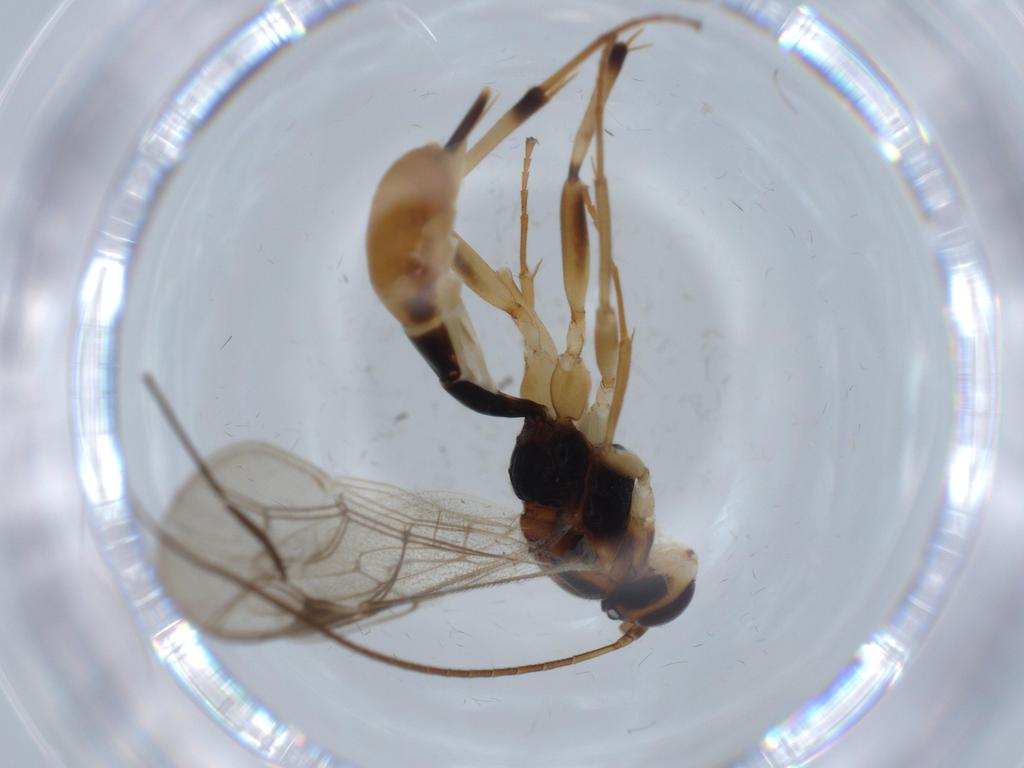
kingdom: Animalia
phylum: Arthropoda
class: Insecta
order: Hymenoptera
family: Ichneumonidae
